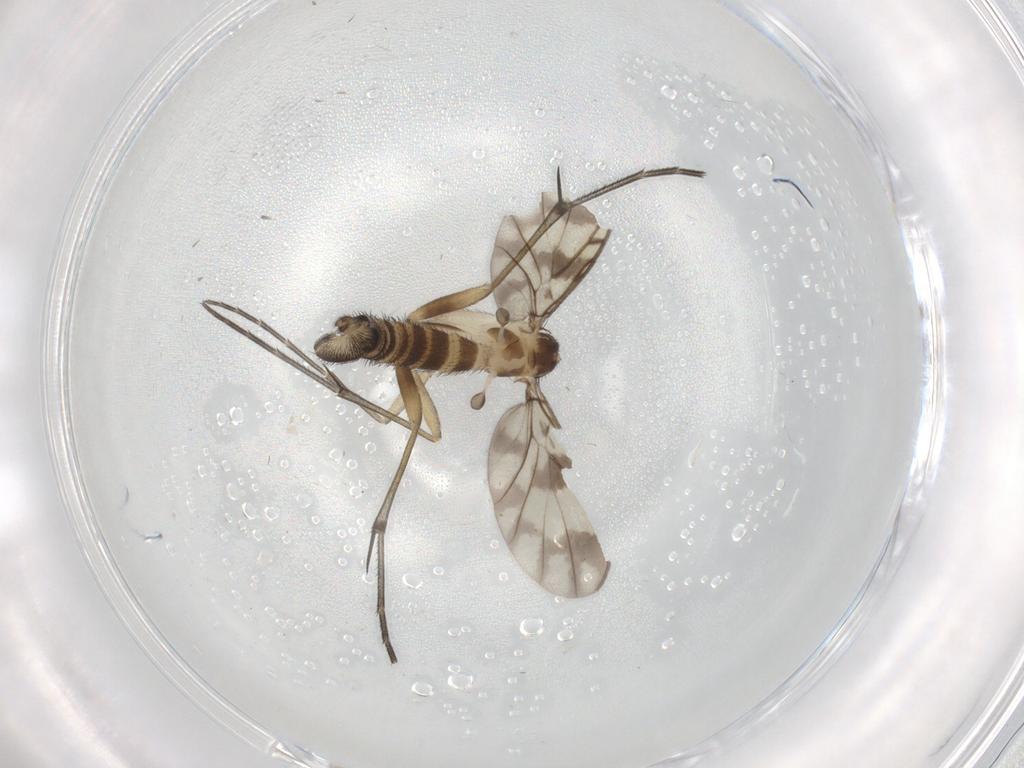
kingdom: Animalia
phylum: Arthropoda
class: Insecta
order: Diptera
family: Keroplatidae
